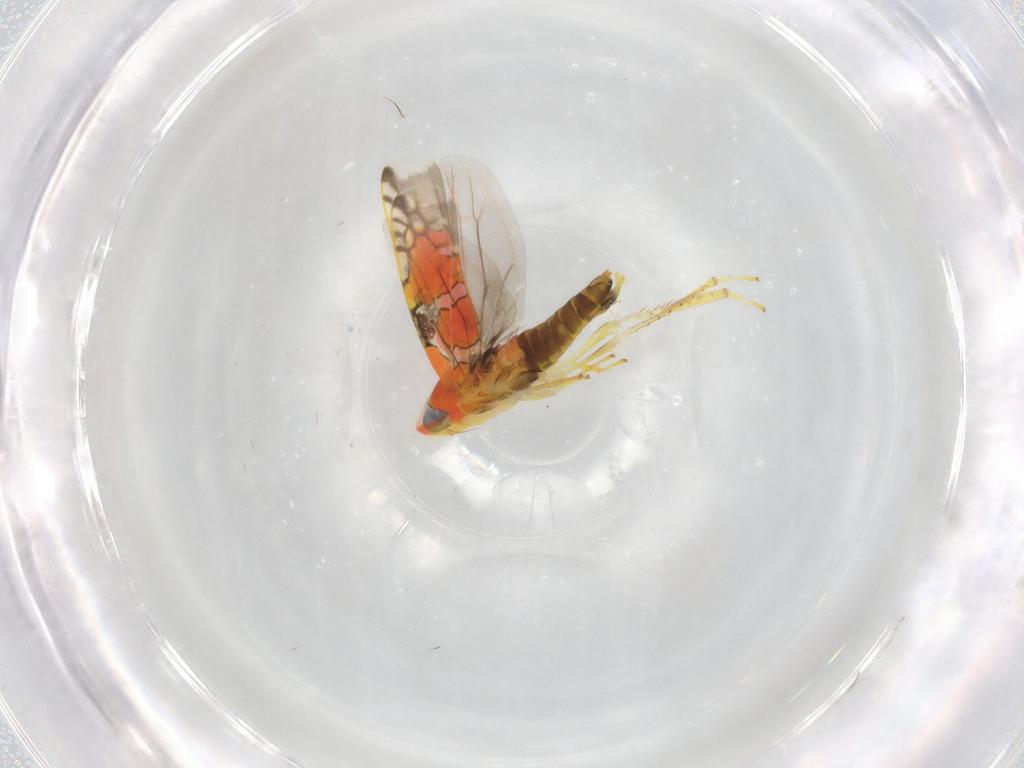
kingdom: Animalia
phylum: Arthropoda
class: Insecta
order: Hemiptera
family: Cicadellidae
